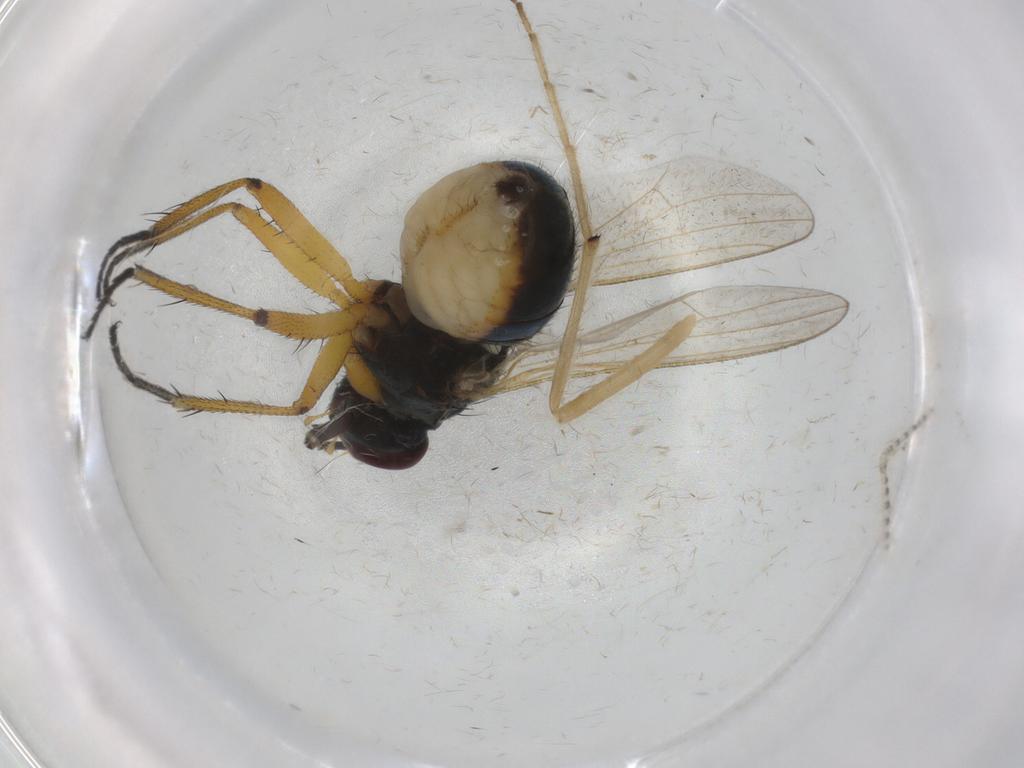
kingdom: Animalia
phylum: Arthropoda
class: Insecta
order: Diptera
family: Muscidae
